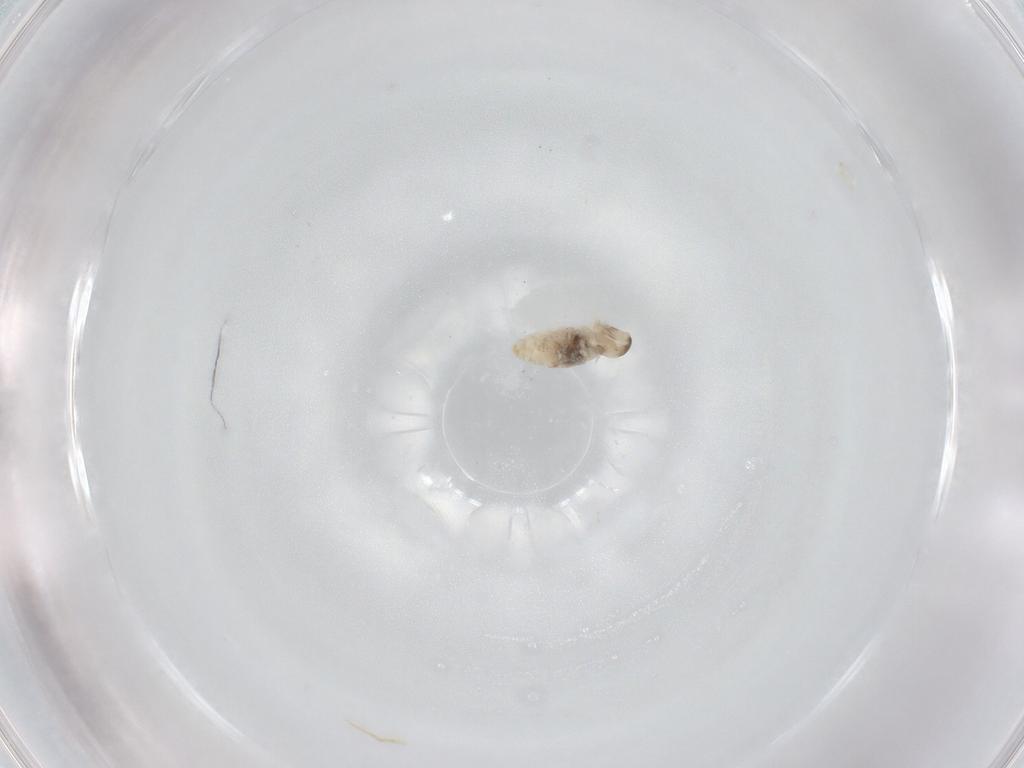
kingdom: Animalia
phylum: Arthropoda
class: Insecta
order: Diptera
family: Cecidomyiidae
